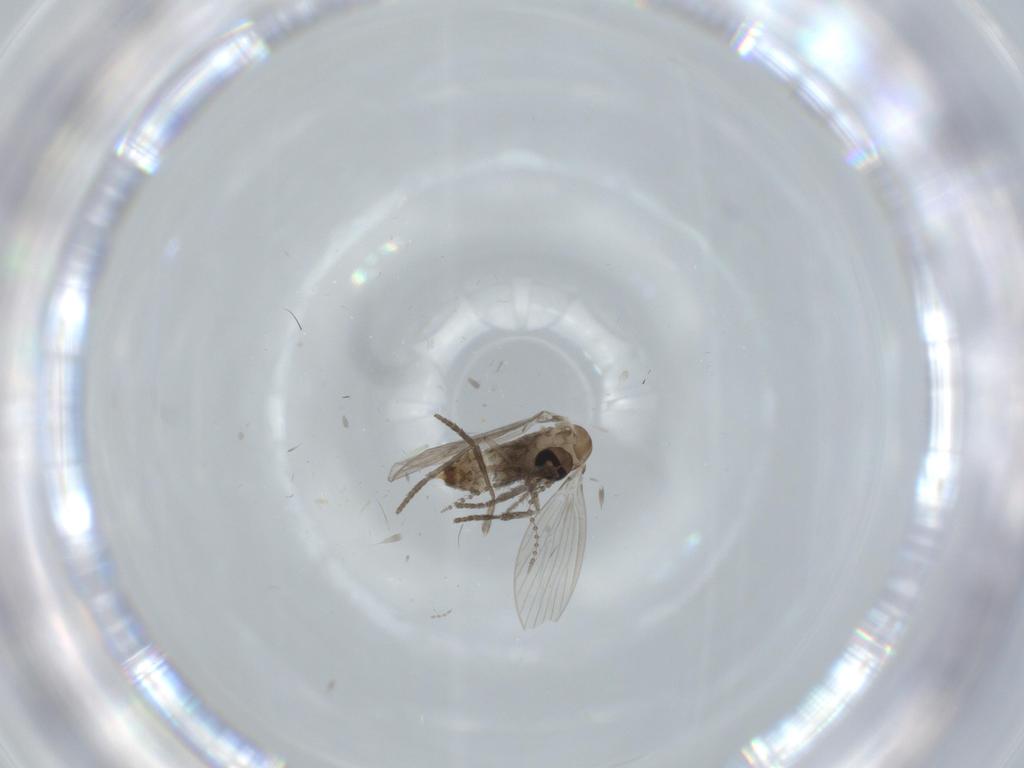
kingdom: Animalia
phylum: Arthropoda
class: Insecta
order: Diptera
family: Psychodidae
